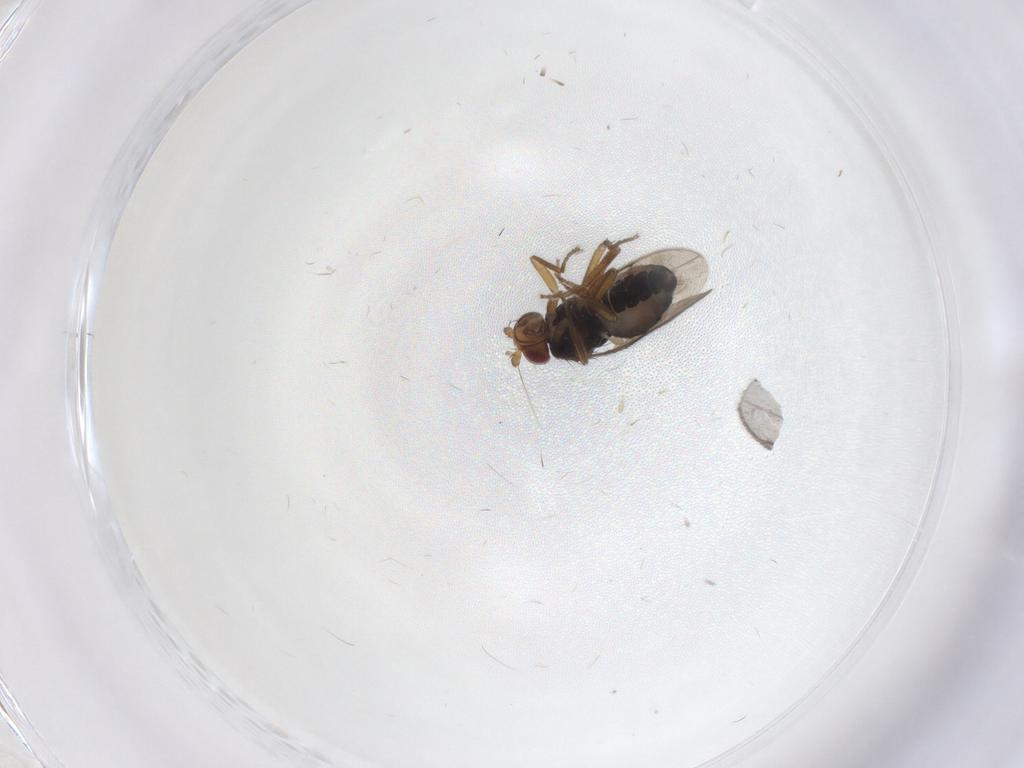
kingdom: Animalia
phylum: Arthropoda
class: Insecta
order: Diptera
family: Sphaeroceridae
